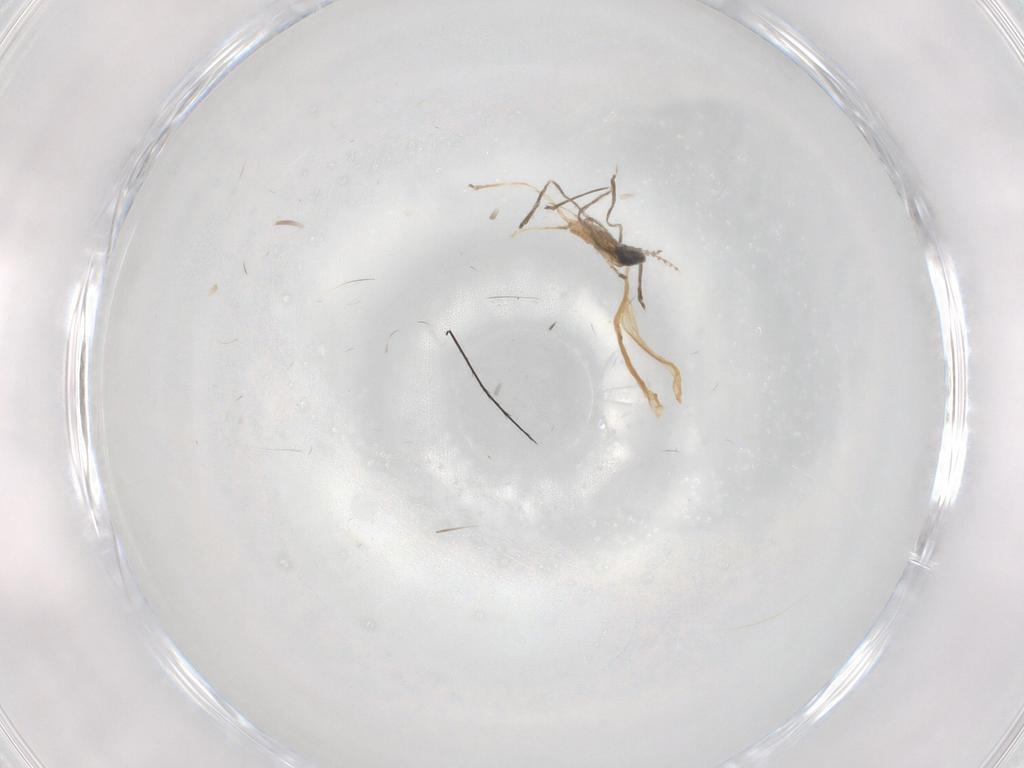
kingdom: Animalia
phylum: Arthropoda
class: Insecta
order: Diptera
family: Cecidomyiidae
